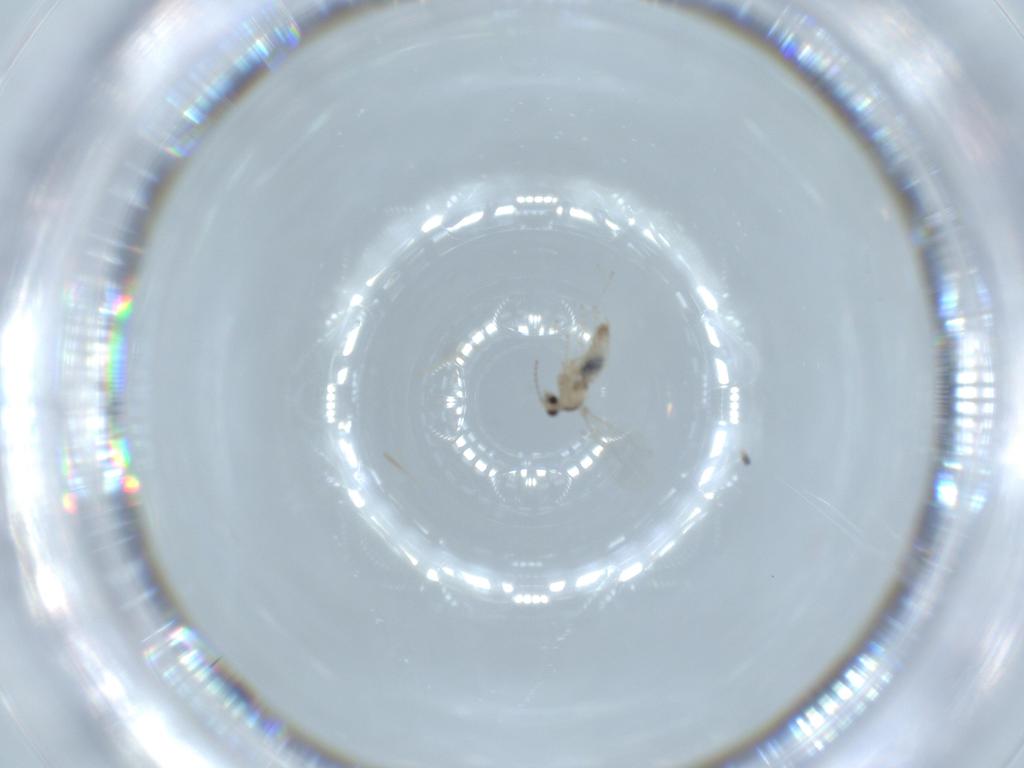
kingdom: Animalia
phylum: Arthropoda
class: Insecta
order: Diptera
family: Cecidomyiidae
